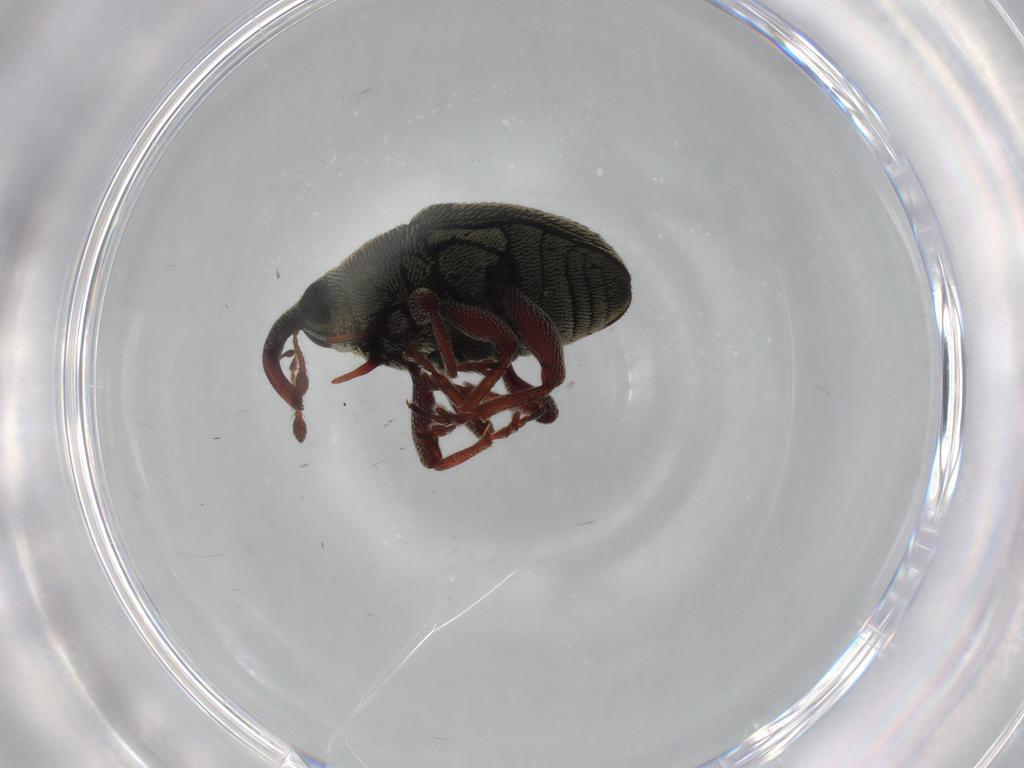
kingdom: Animalia
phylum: Arthropoda
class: Insecta
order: Coleoptera
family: Curculionidae
